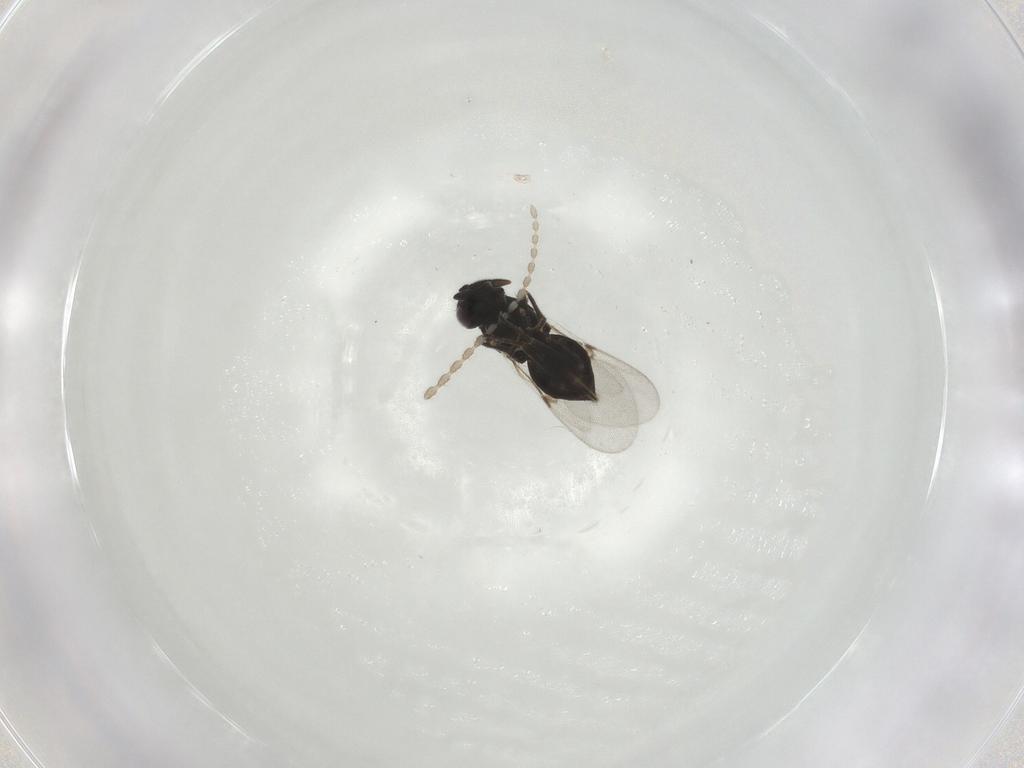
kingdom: Animalia
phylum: Arthropoda
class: Insecta
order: Hymenoptera
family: Encyrtidae
